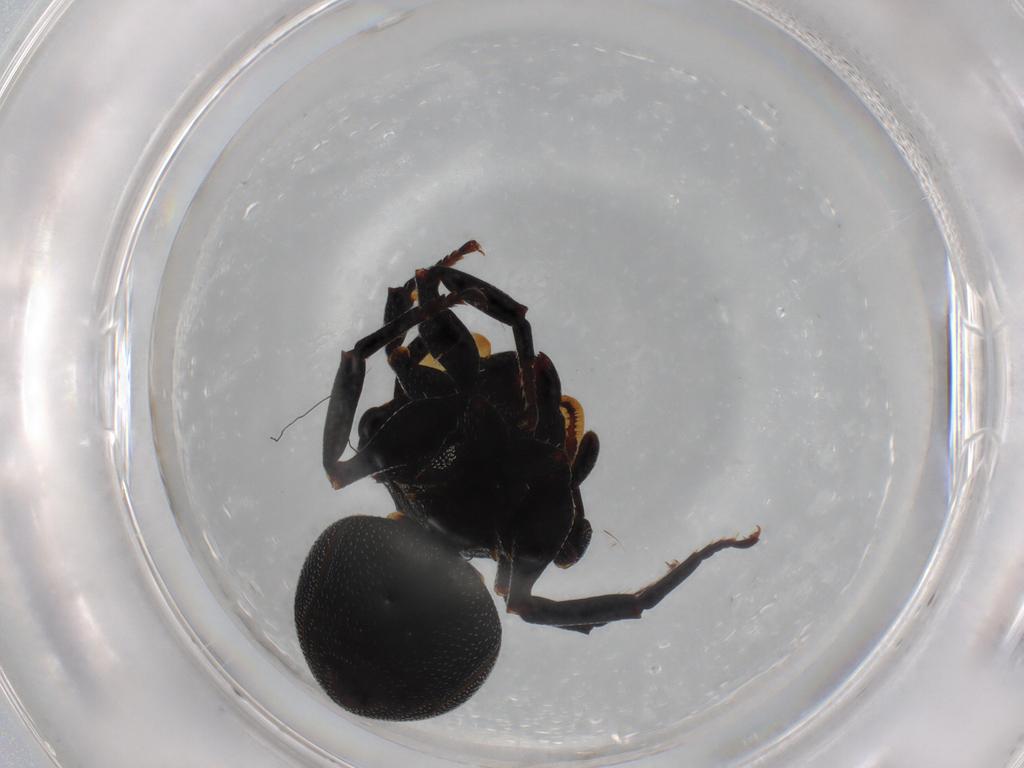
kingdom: Animalia
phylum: Arthropoda
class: Insecta
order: Hymenoptera
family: Formicidae
